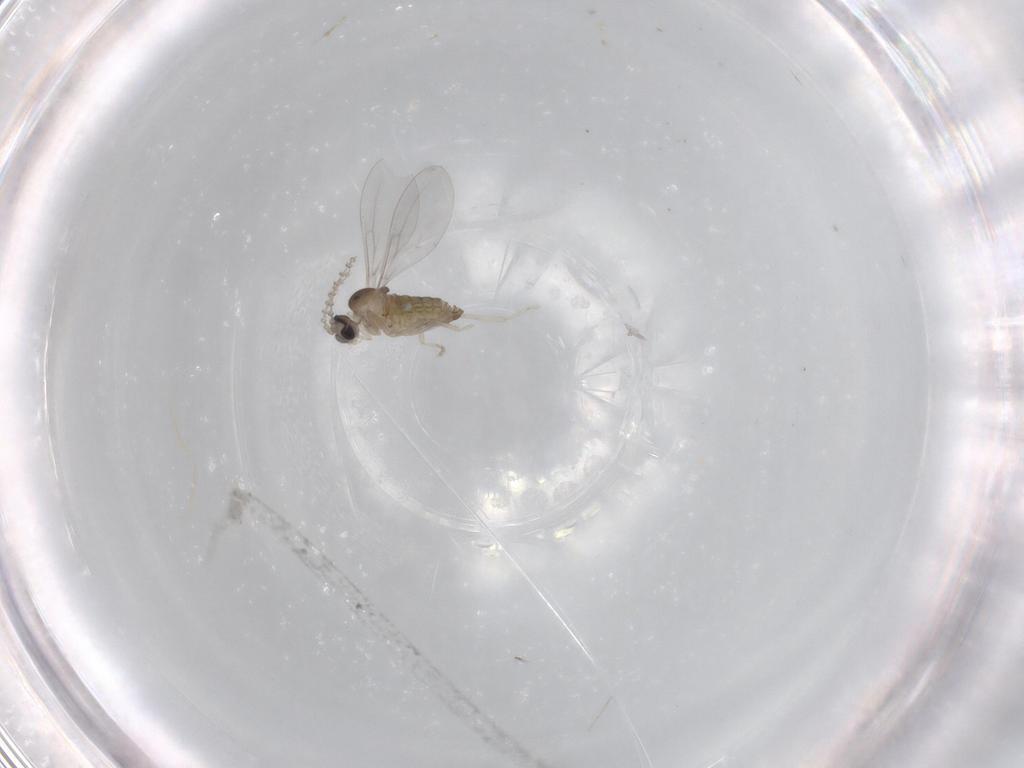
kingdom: Animalia
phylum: Arthropoda
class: Insecta
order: Diptera
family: Cecidomyiidae
